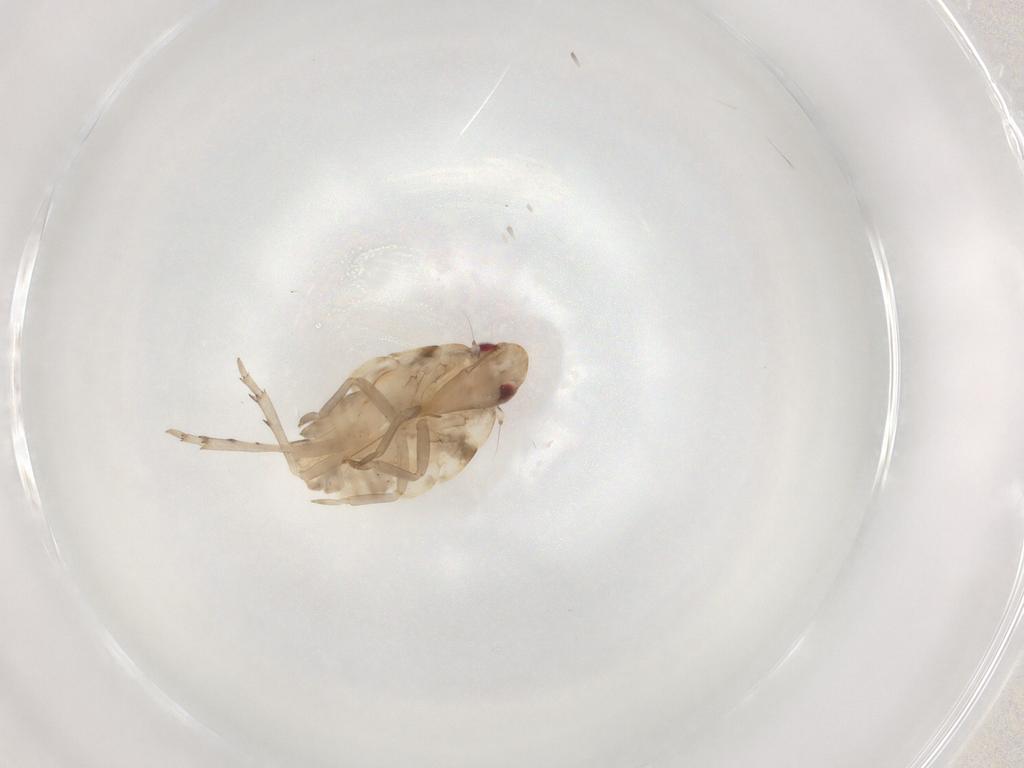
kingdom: Animalia
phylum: Arthropoda
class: Insecta
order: Hemiptera
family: Flatidae
